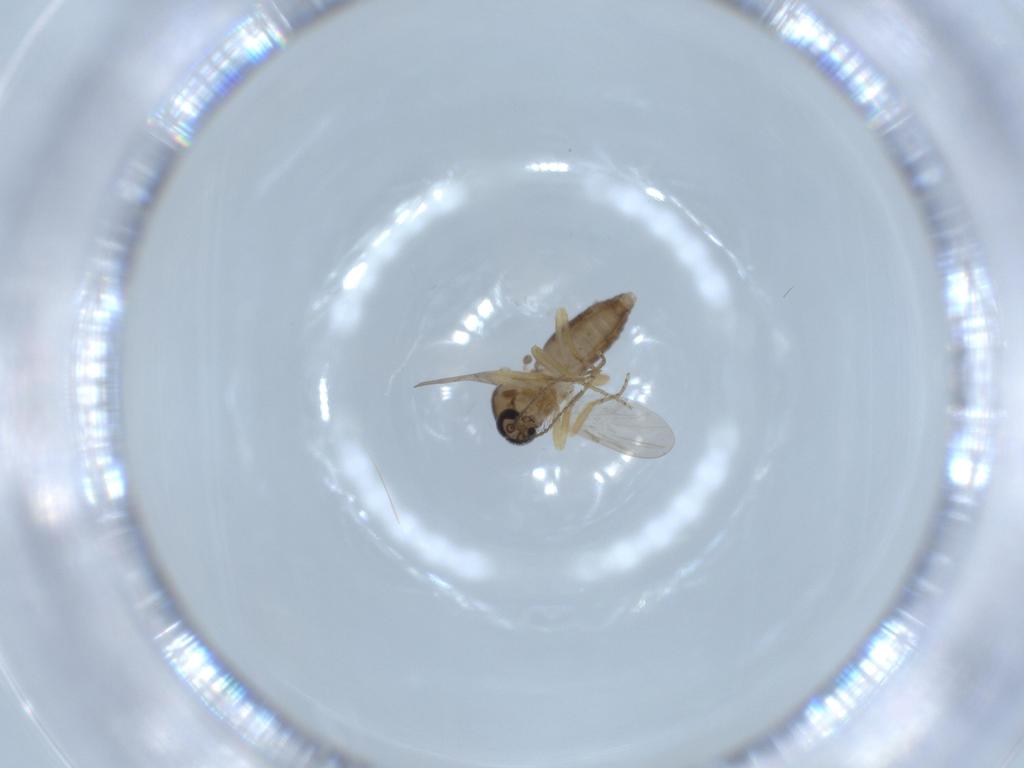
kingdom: Animalia
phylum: Arthropoda
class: Insecta
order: Diptera
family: Ceratopogonidae
